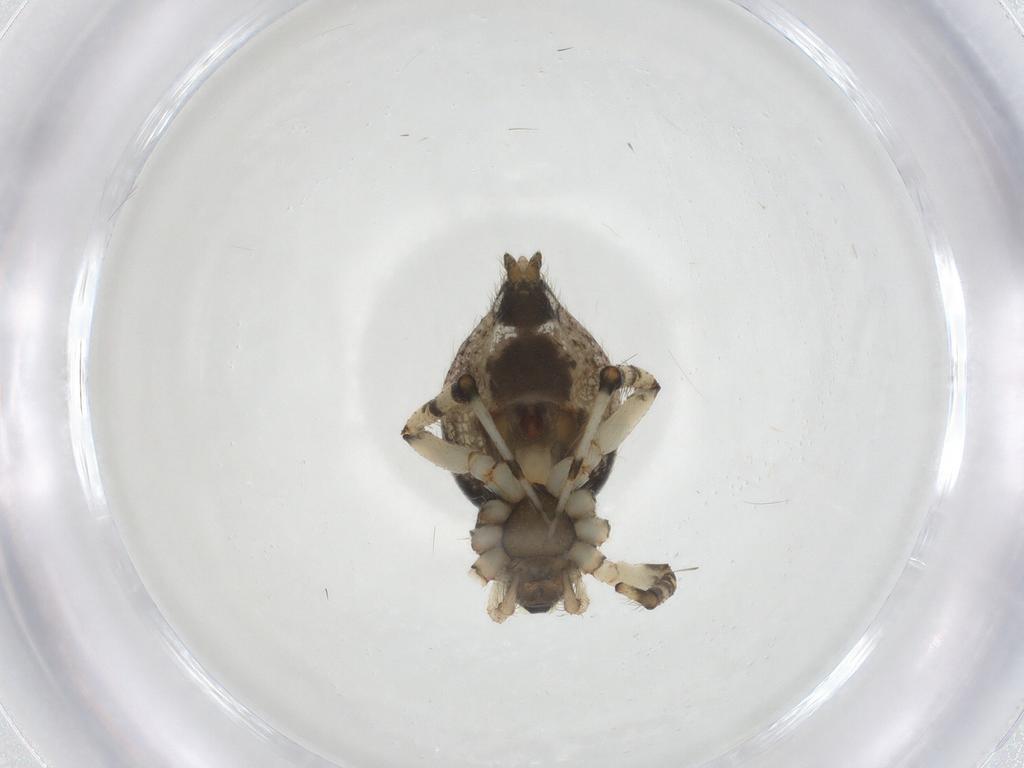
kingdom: Animalia
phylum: Arthropoda
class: Arachnida
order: Araneae
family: Theridiidae
